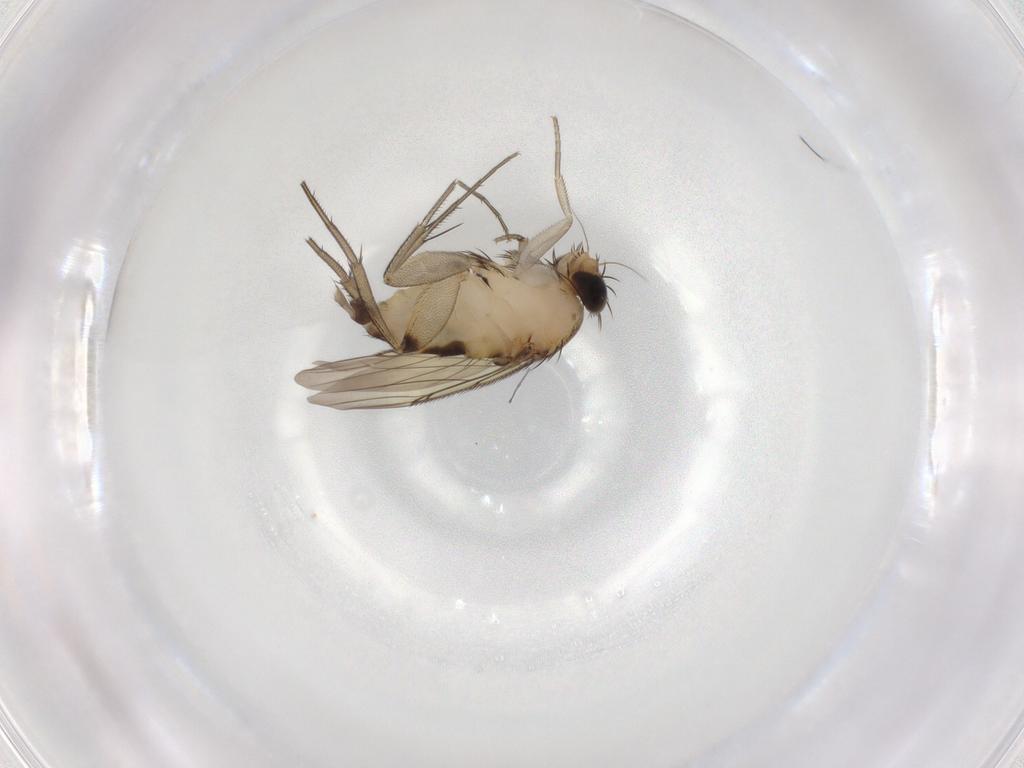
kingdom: Animalia
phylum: Arthropoda
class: Insecta
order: Diptera
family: Phoridae
